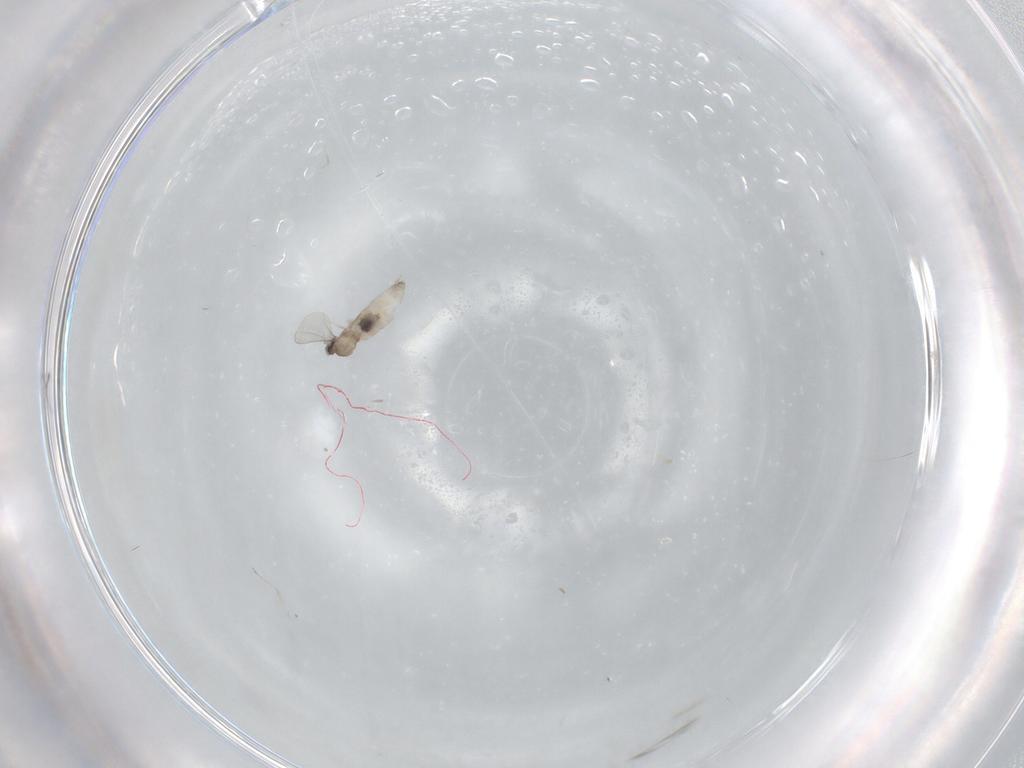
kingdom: Animalia
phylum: Arthropoda
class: Insecta
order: Diptera
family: Cecidomyiidae
